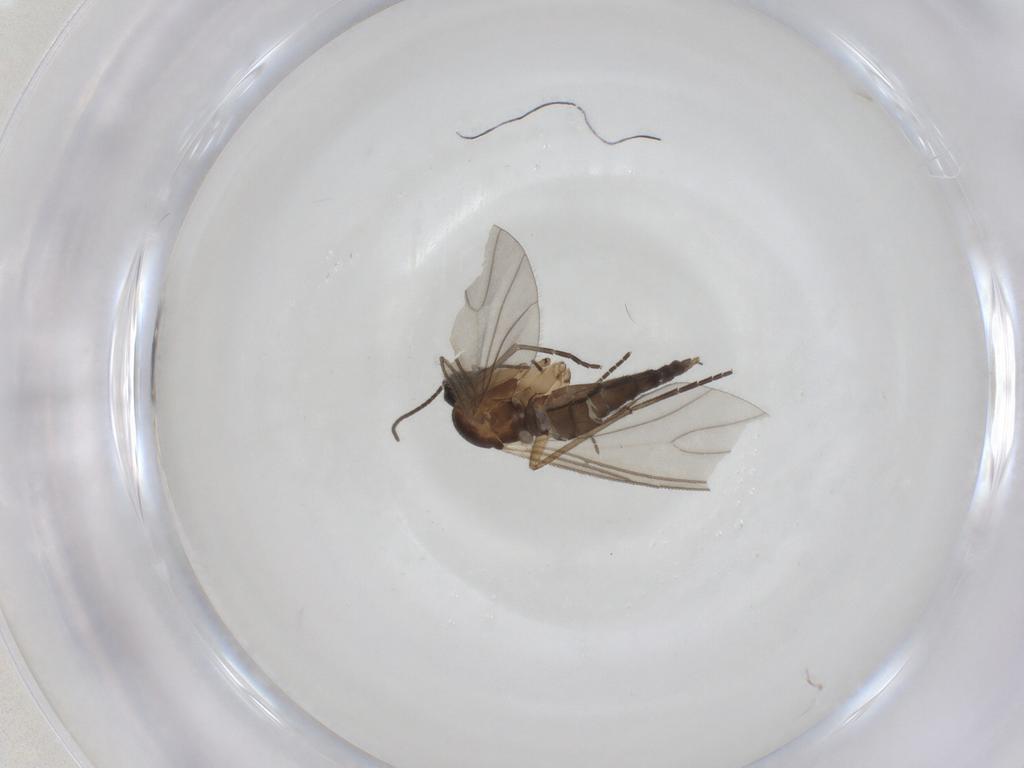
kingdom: Animalia
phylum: Arthropoda
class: Insecta
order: Diptera
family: Sciaridae
